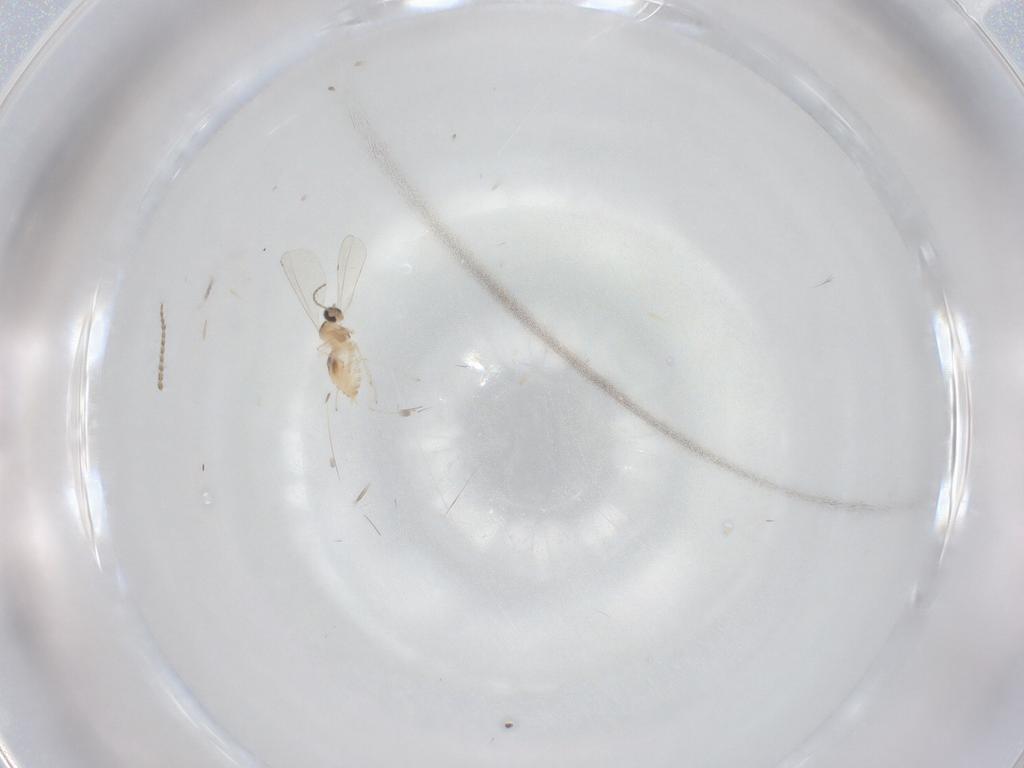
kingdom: Animalia
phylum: Arthropoda
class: Insecta
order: Diptera
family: Cecidomyiidae
